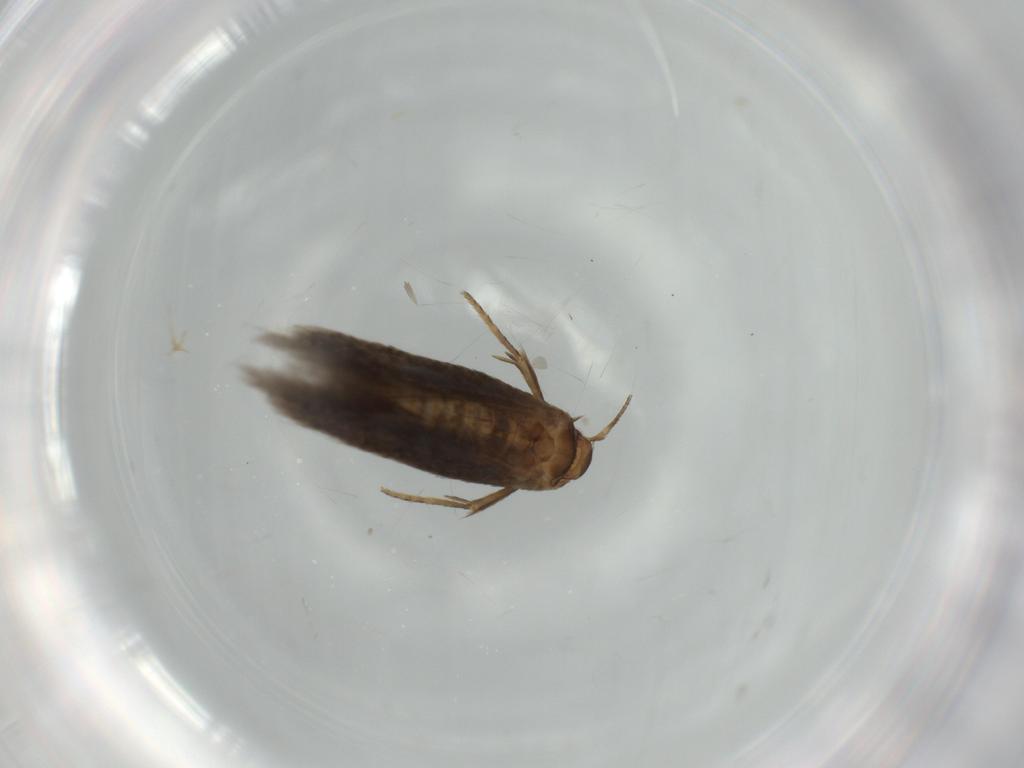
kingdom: Animalia
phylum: Arthropoda
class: Insecta
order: Lepidoptera
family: Coleophoridae
